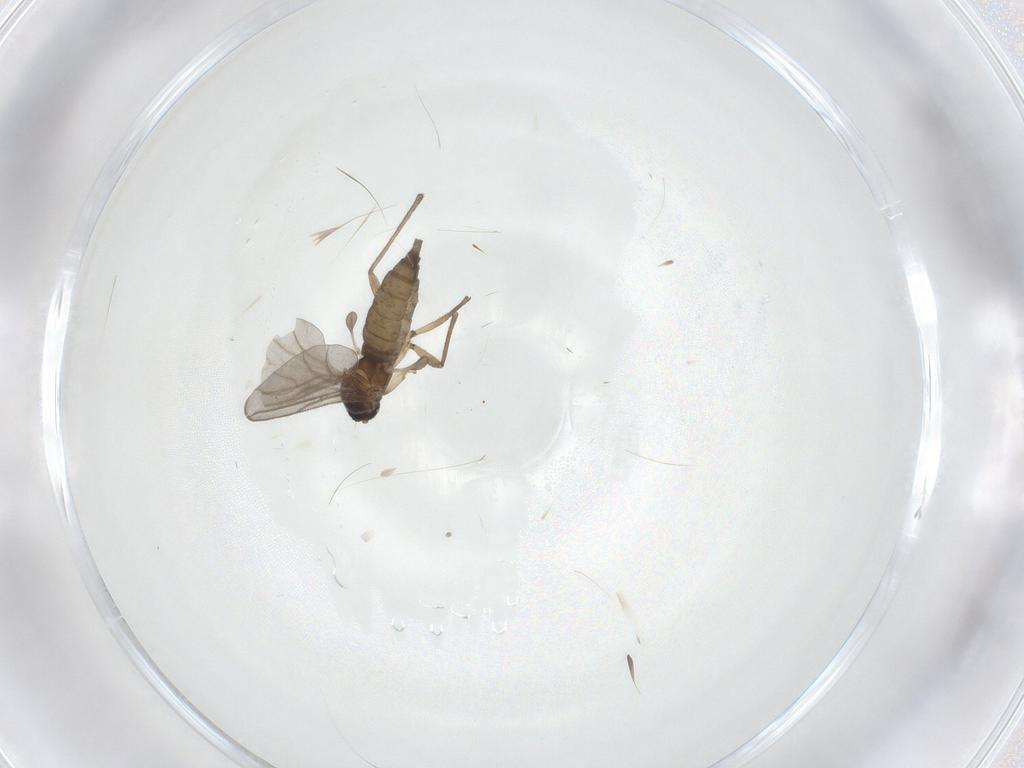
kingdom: Animalia
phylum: Arthropoda
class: Insecta
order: Diptera
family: Sciaridae
